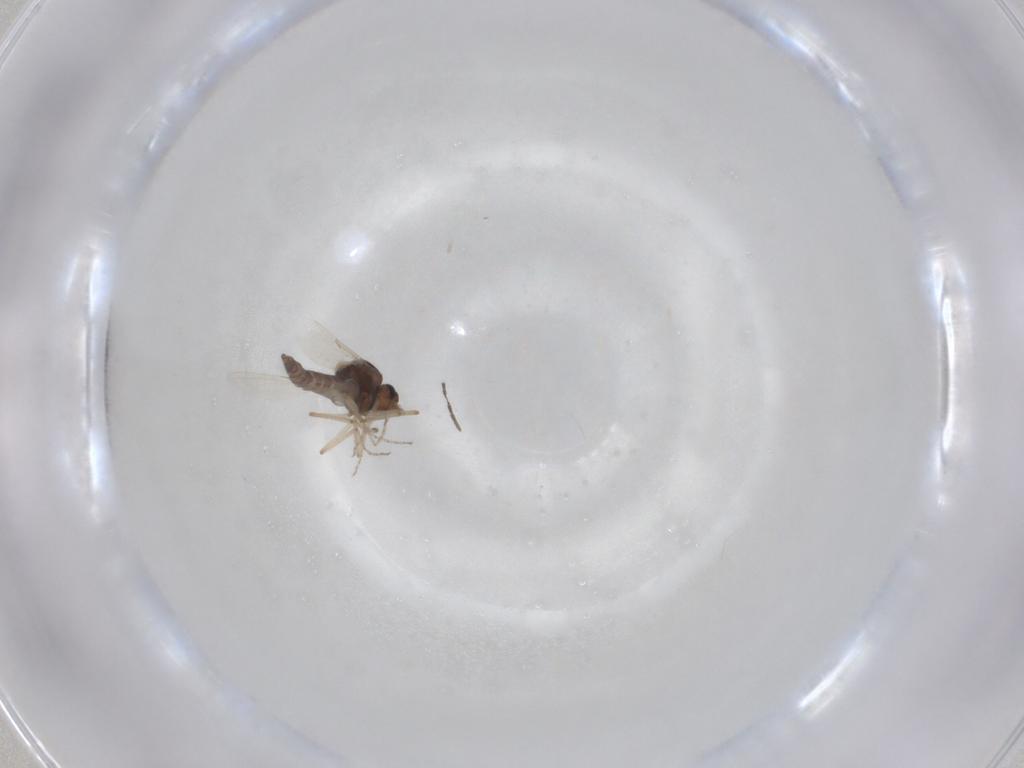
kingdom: Animalia
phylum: Arthropoda
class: Insecta
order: Diptera
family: Ceratopogonidae
